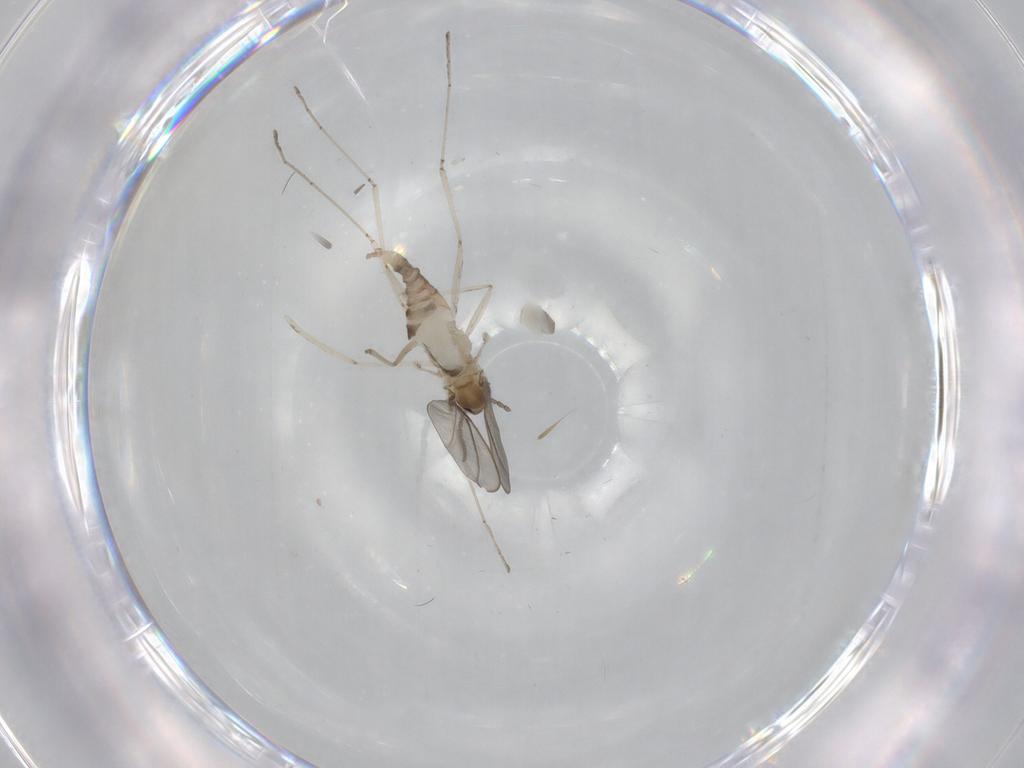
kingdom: Animalia
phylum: Arthropoda
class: Insecta
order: Diptera
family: Cecidomyiidae
